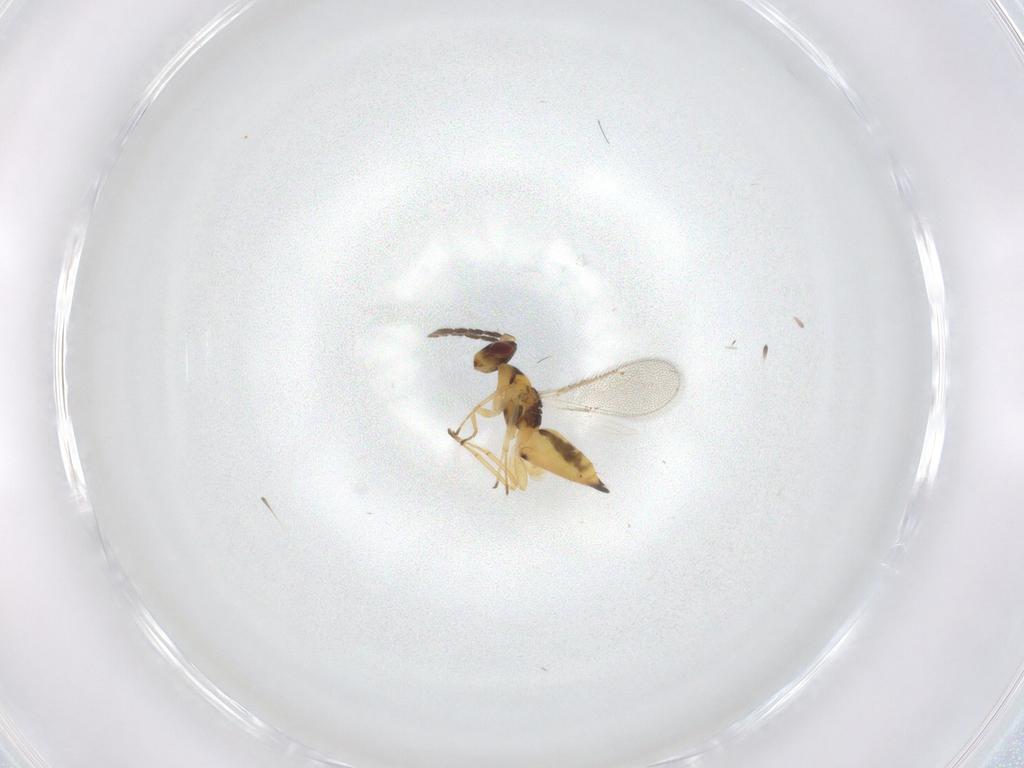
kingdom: Animalia
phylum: Arthropoda
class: Insecta
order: Hymenoptera
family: Eulophidae
